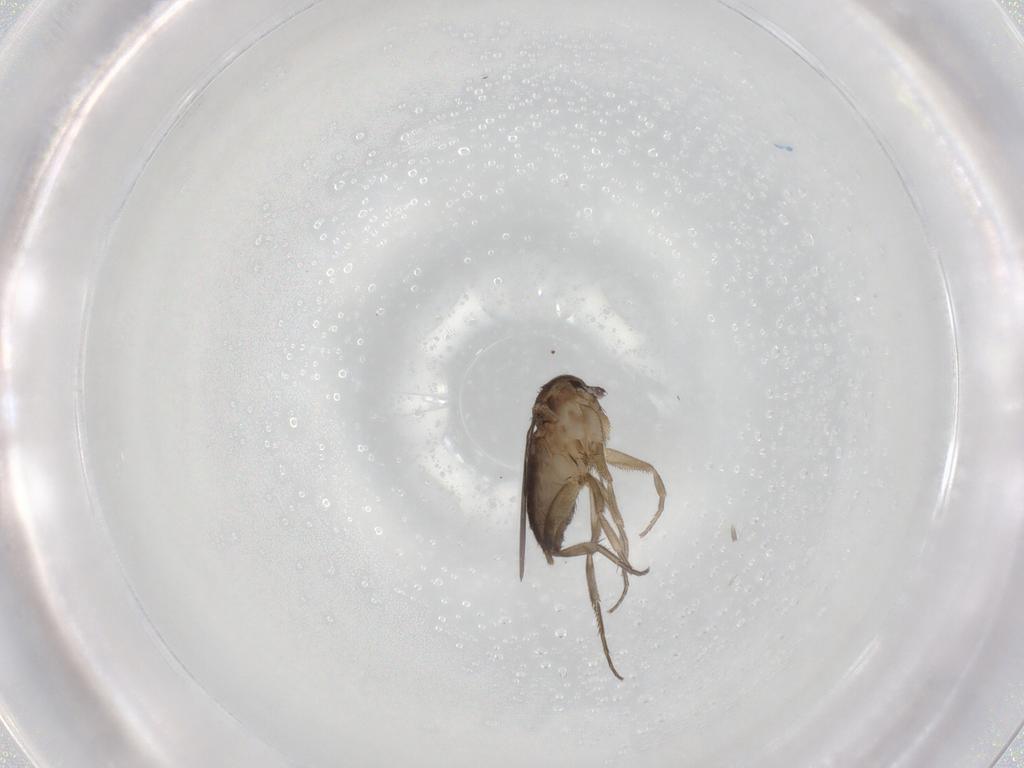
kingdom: Animalia
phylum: Arthropoda
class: Insecta
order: Diptera
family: Phoridae
